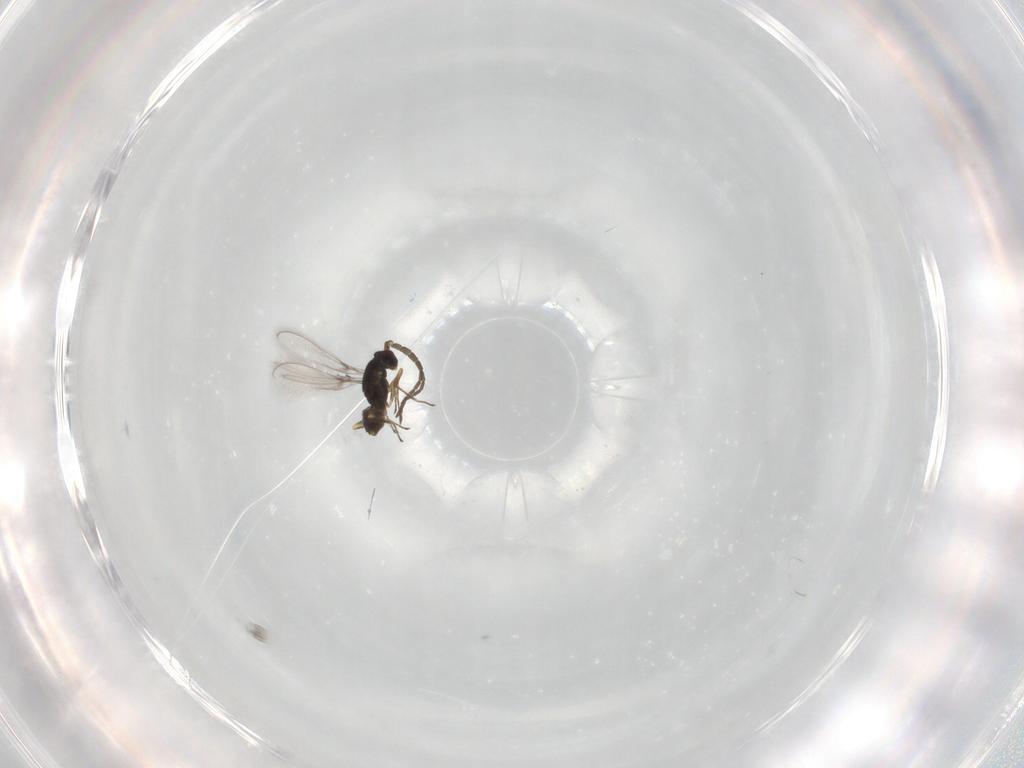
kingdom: Animalia
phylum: Arthropoda
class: Insecta
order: Hymenoptera
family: Mymaridae
